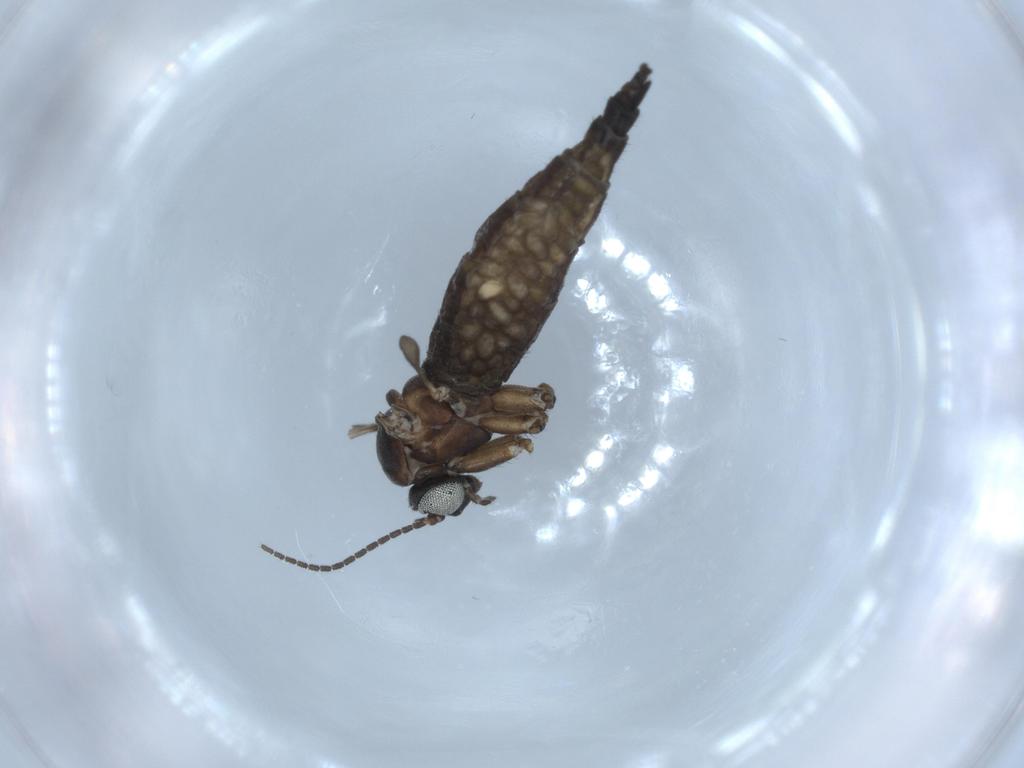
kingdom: Animalia
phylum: Arthropoda
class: Insecta
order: Diptera
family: Sciaridae
